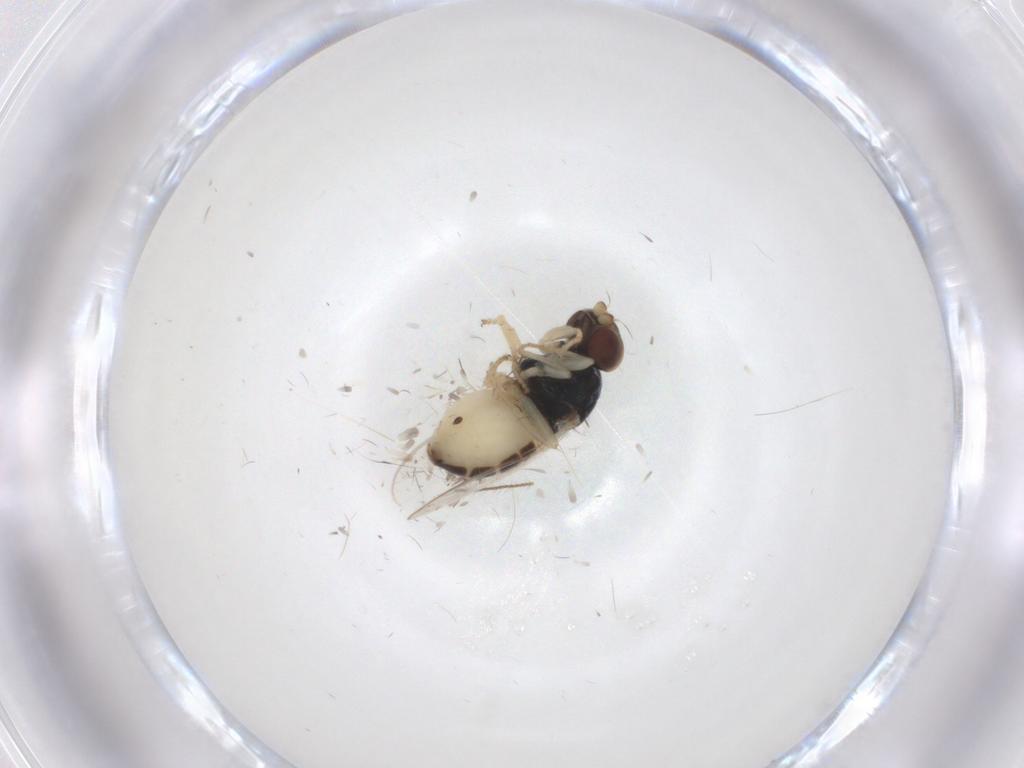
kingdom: Animalia
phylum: Arthropoda
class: Insecta
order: Diptera
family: Chloropidae
